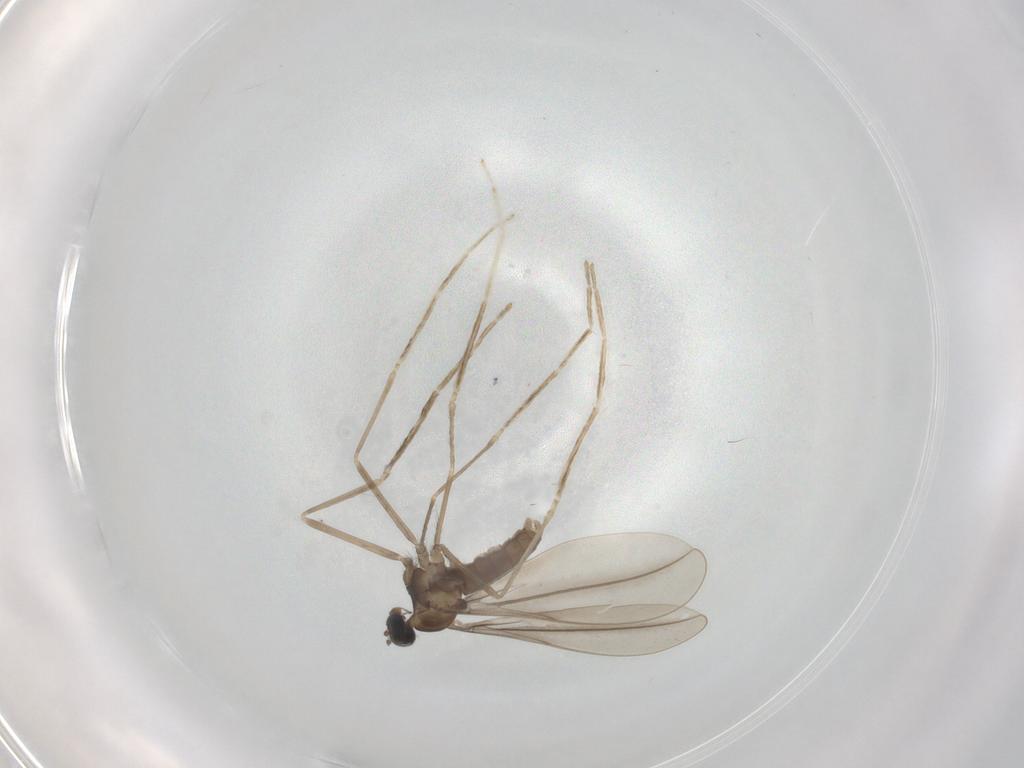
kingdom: Animalia
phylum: Arthropoda
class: Insecta
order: Diptera
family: Cecidomyiidae
